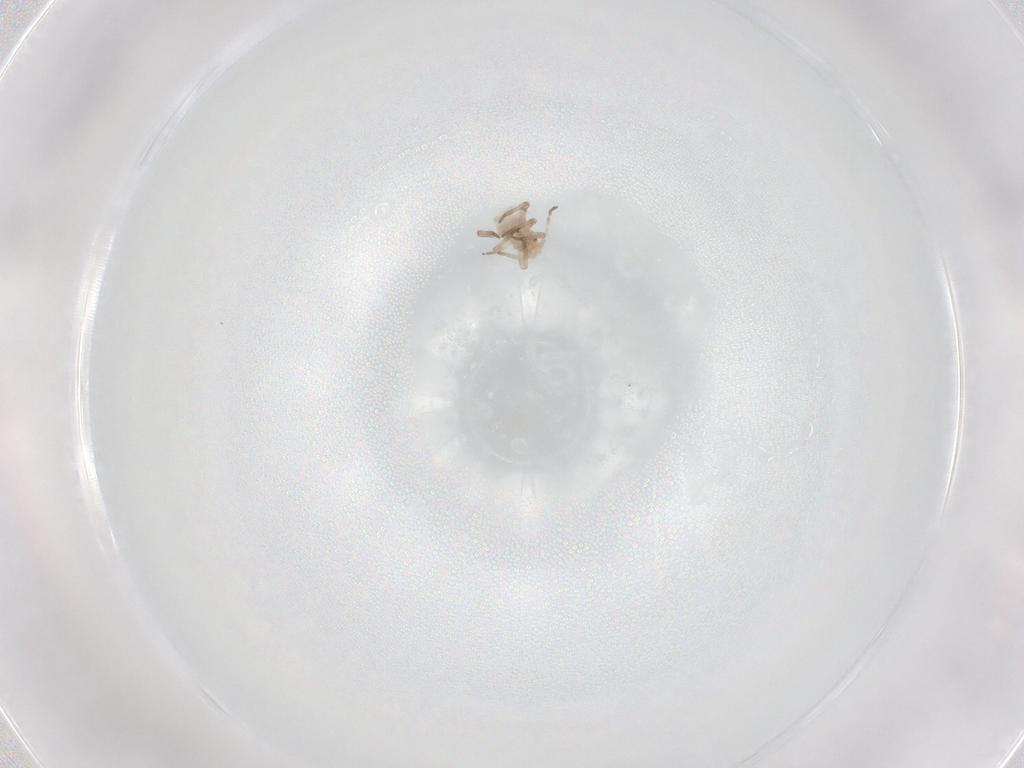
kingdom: Animalia
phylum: Arthropoda
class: Insecta
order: Hemiptera
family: Aphididae
